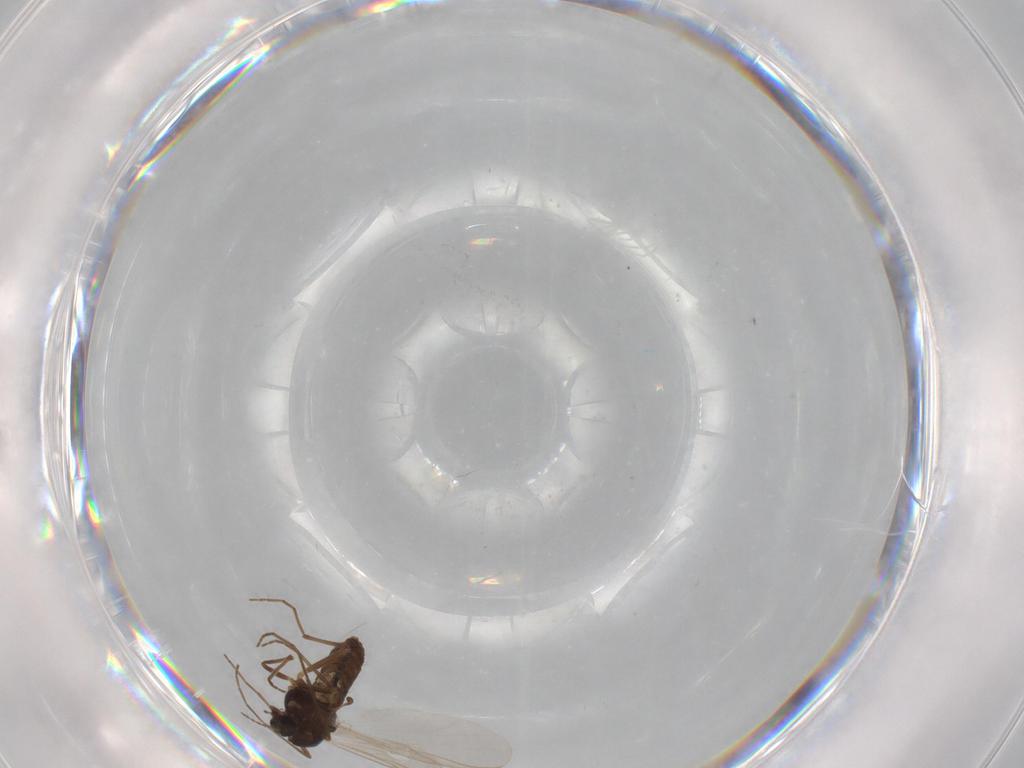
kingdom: Animalia
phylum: Arthropoda
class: Insecta
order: Diptera
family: Chironomidae
